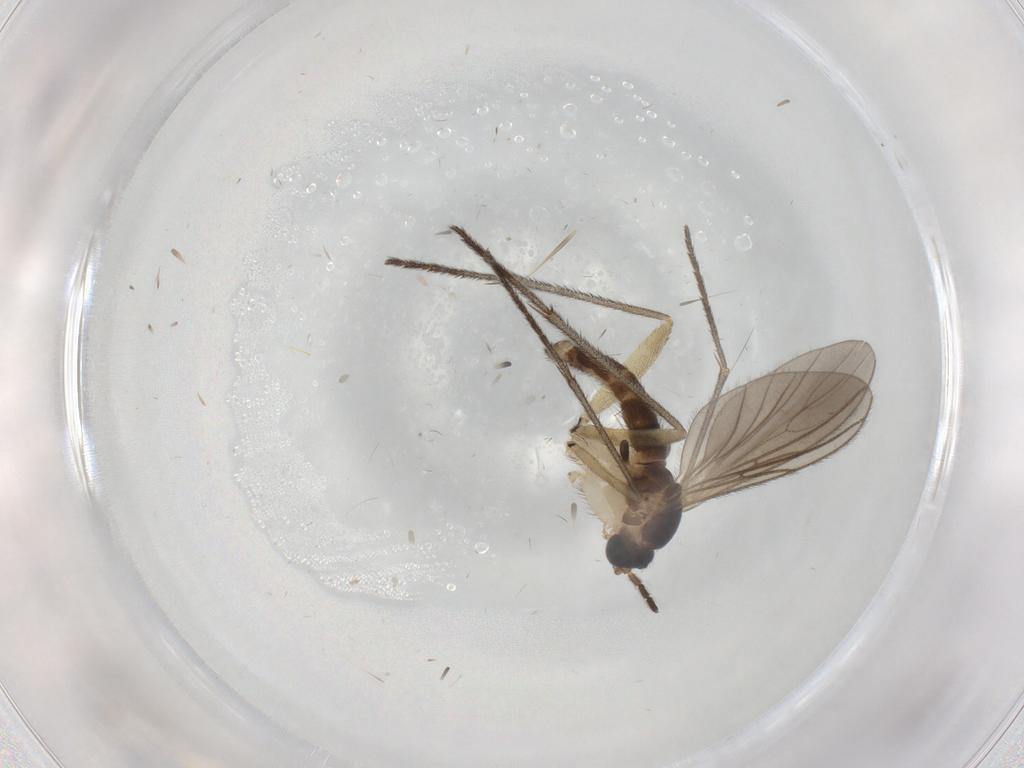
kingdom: Animalia
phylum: Arthropoda
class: Insecta
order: Diptera
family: Sciaridae
